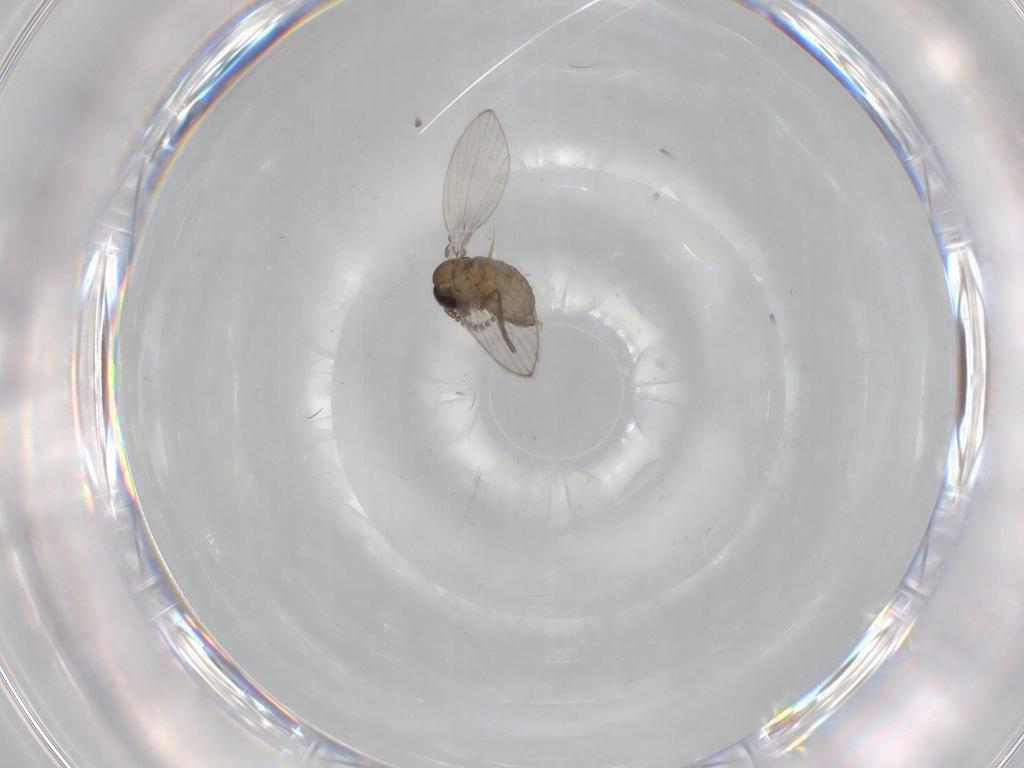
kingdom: Animalia
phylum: Arthropoda
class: Insecta
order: Diptera
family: Psychodidae
